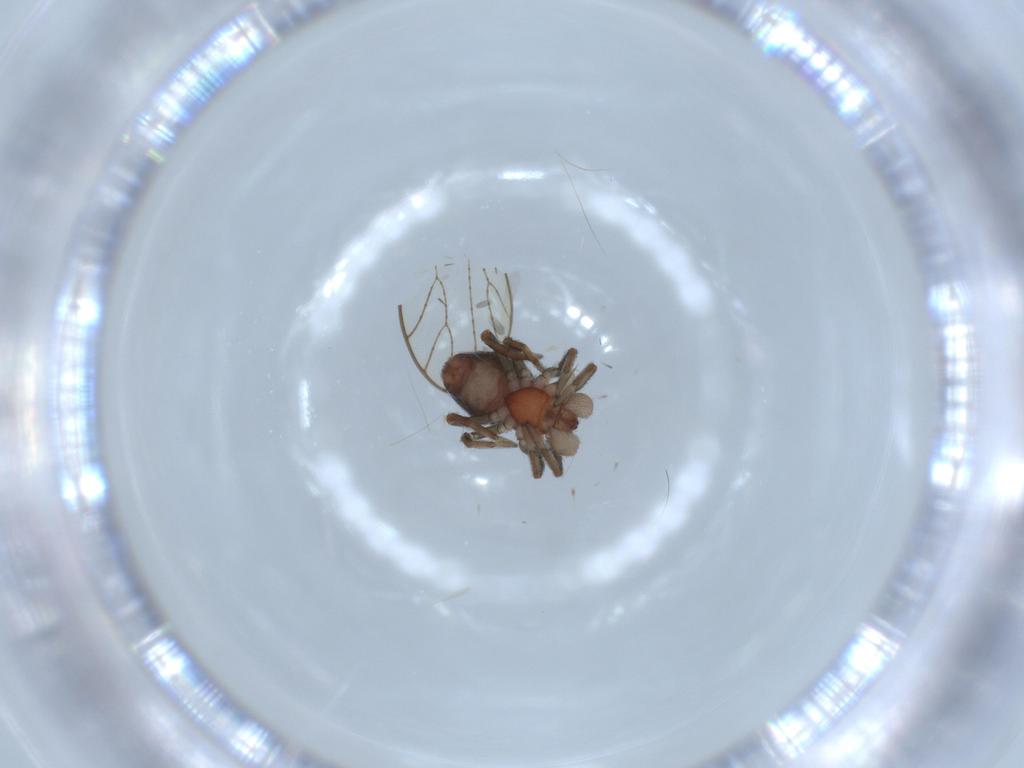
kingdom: Animalia
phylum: Arthropoda
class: Arachnida
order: Araneae
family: Dictynidae
